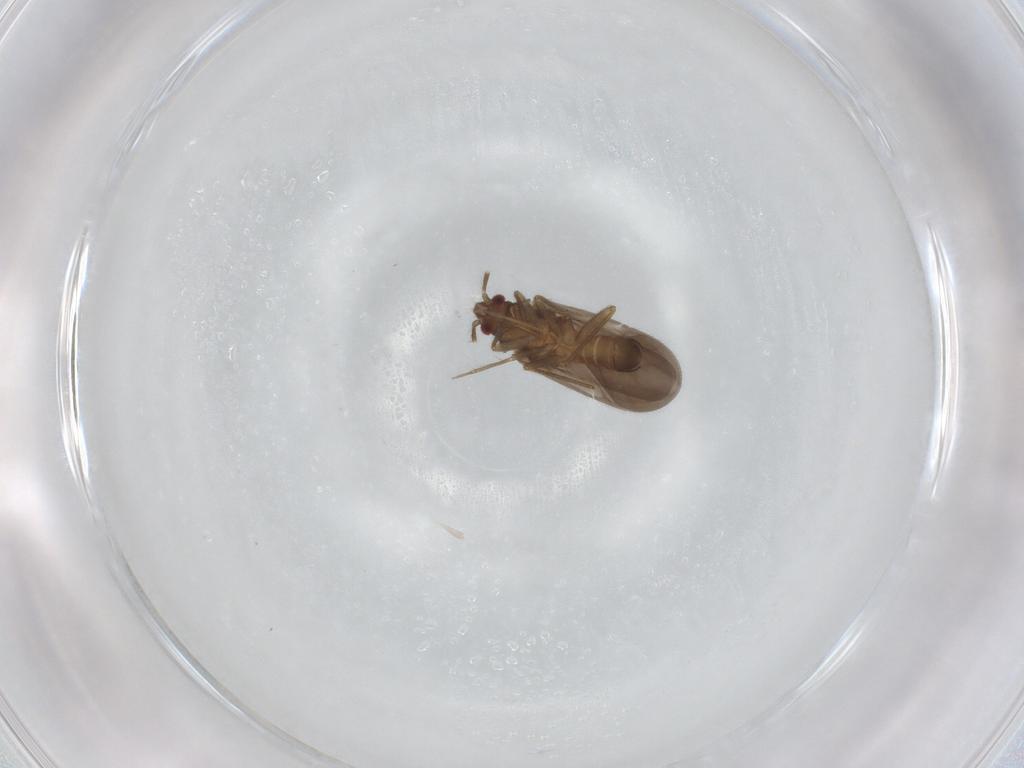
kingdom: Animalia
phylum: Arthropoda
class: Insecta
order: Hemiptera
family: Ceratocombidae
